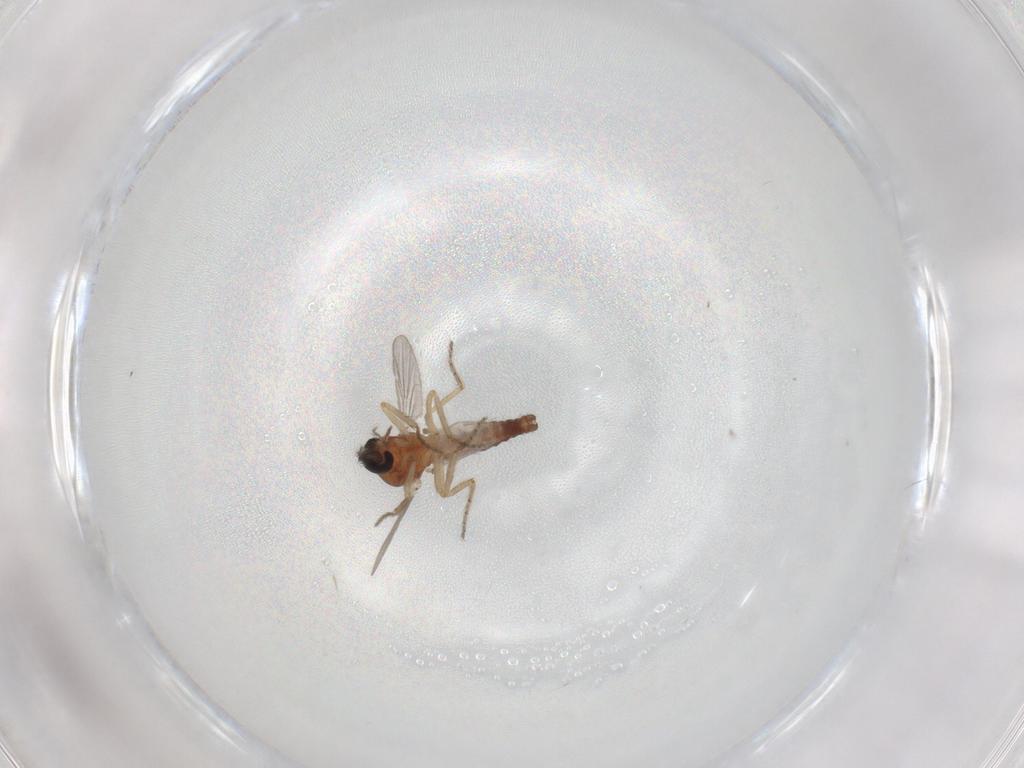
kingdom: Animalia
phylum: Arthropoda
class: Insecta
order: Diptera
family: Ceratopogonidae
